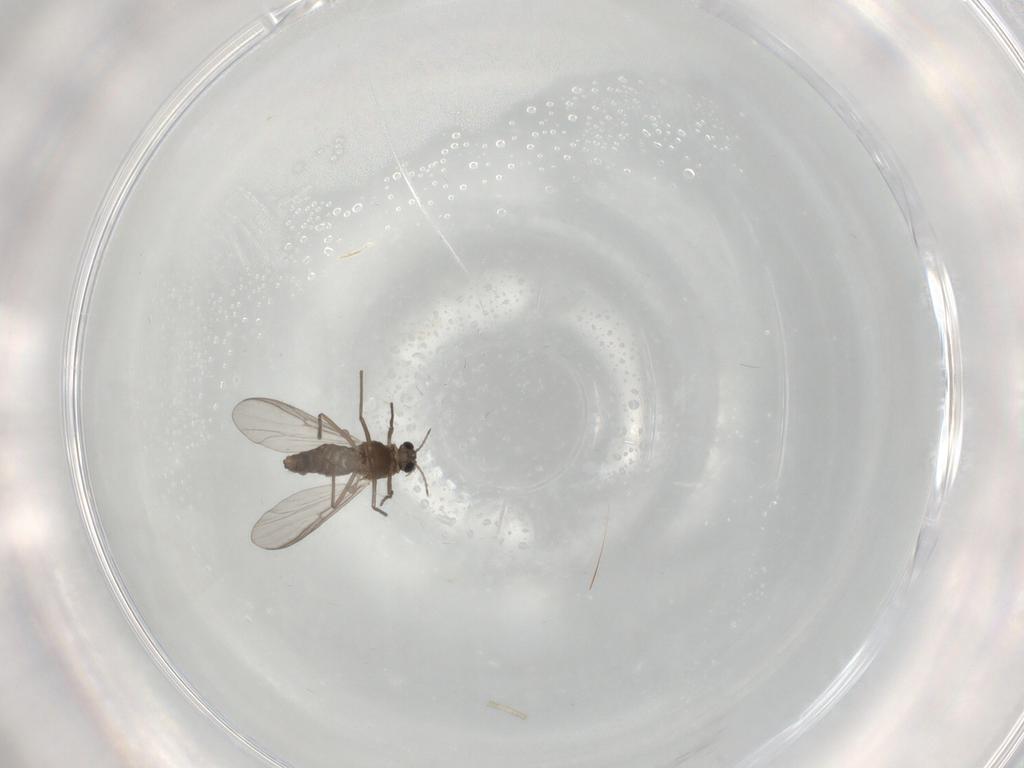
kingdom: Animalia
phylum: Arthropoda
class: Insecta
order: Diptera
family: Chironomidae
